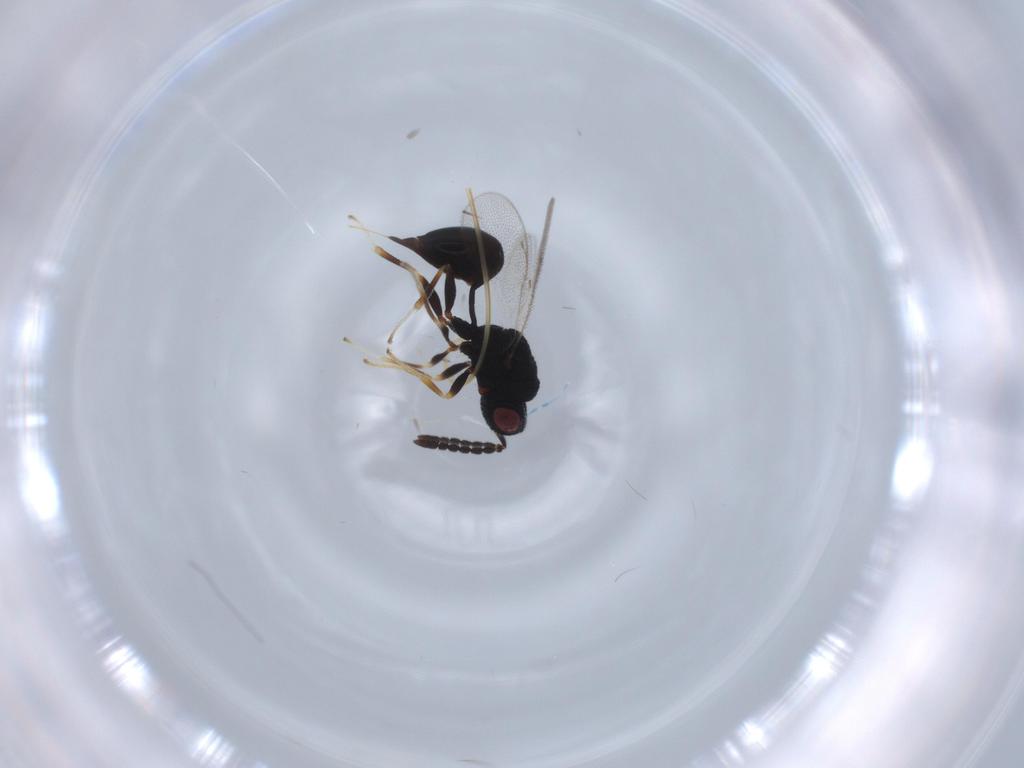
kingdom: Animalia
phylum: Arthropoda
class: Insecta
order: Hymenoptera
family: Eurytomidae
